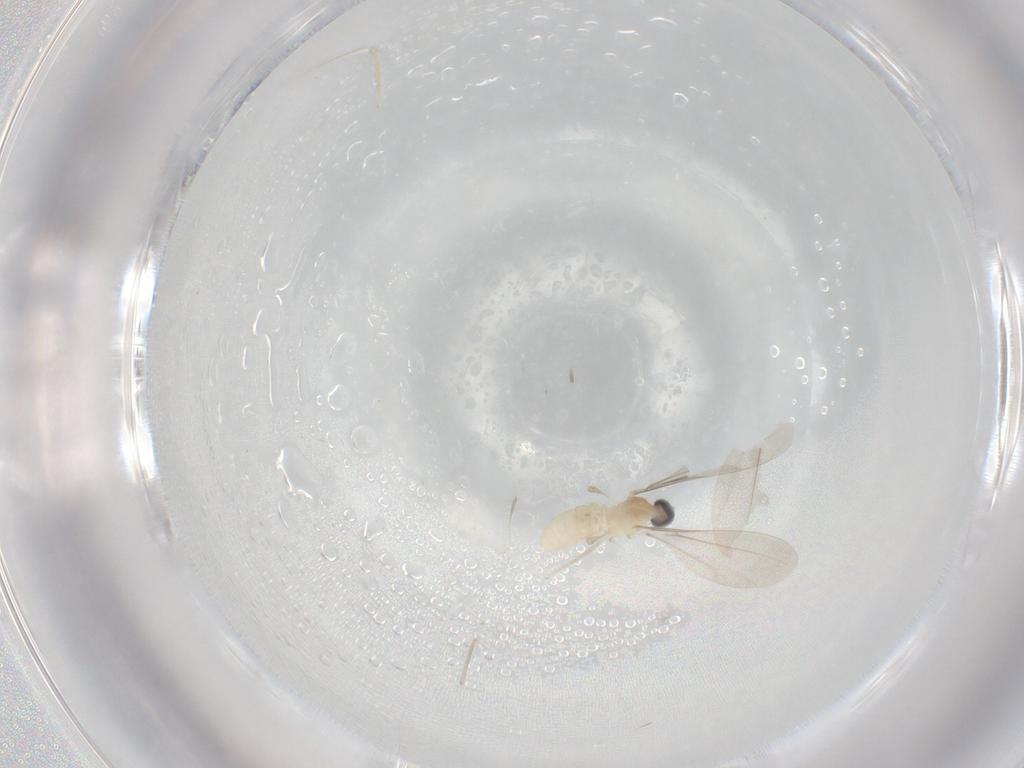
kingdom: Animalia
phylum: Arthropoda
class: Insecta
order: Diptera
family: Cecidomyiidae
